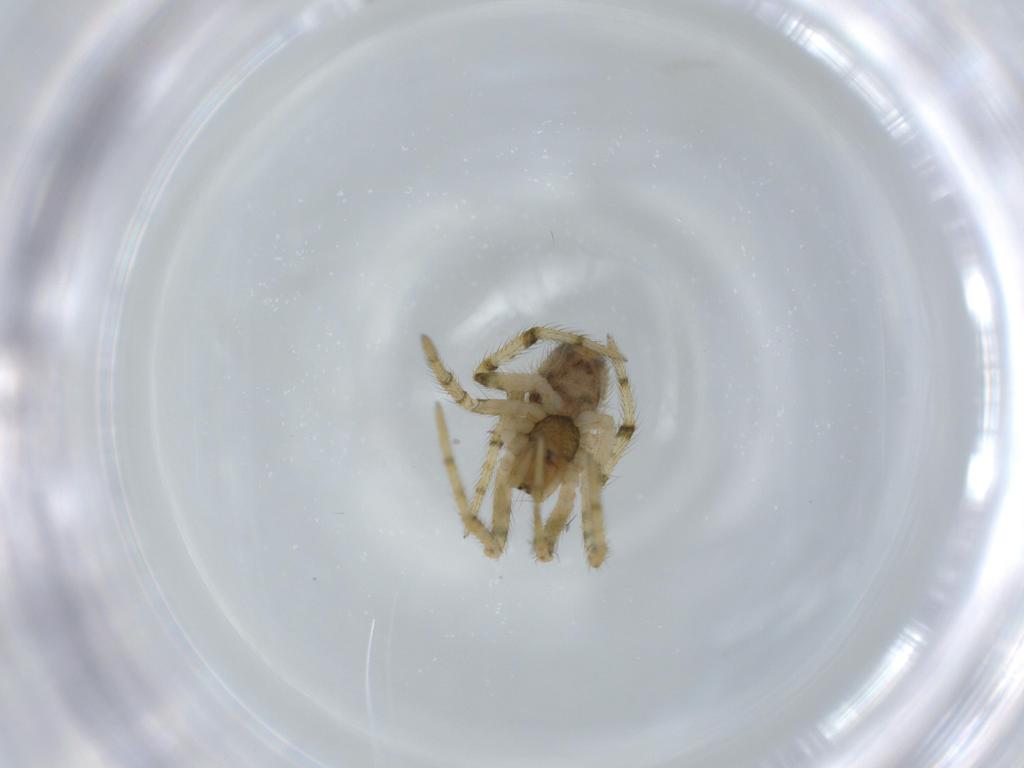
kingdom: Animalia
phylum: Arthropoda
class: Arachnida
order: Araneae
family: Theridiidae
